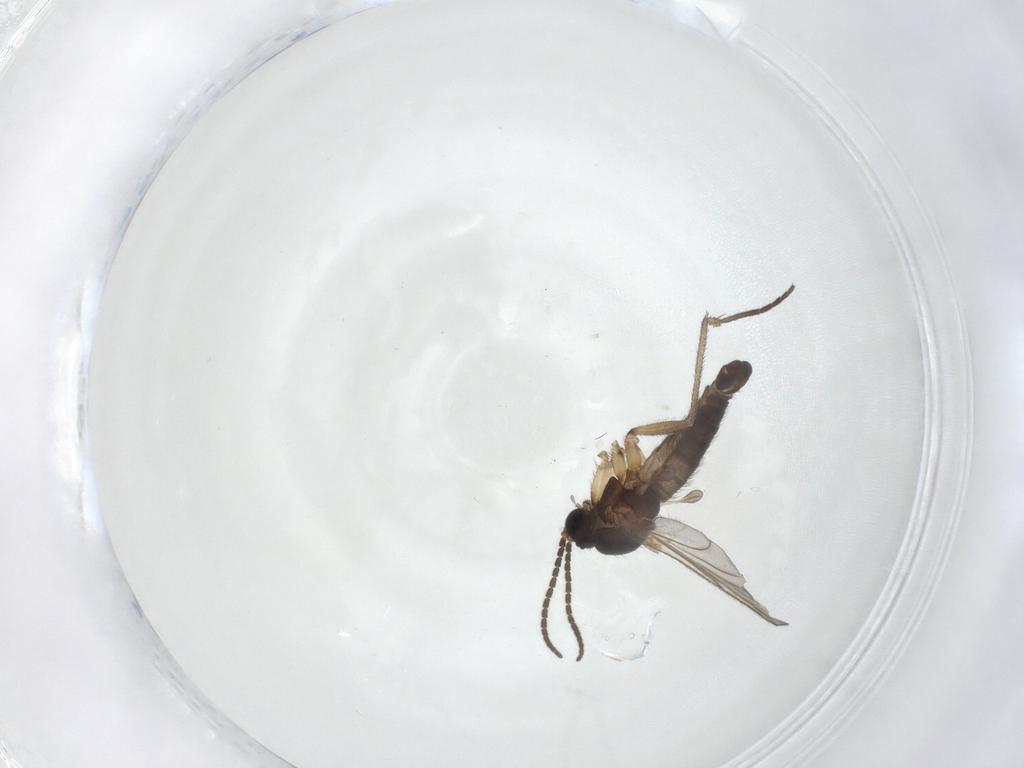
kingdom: Animalia
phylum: Arthropoda
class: Insecta
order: Diptera
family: Sciaridae
